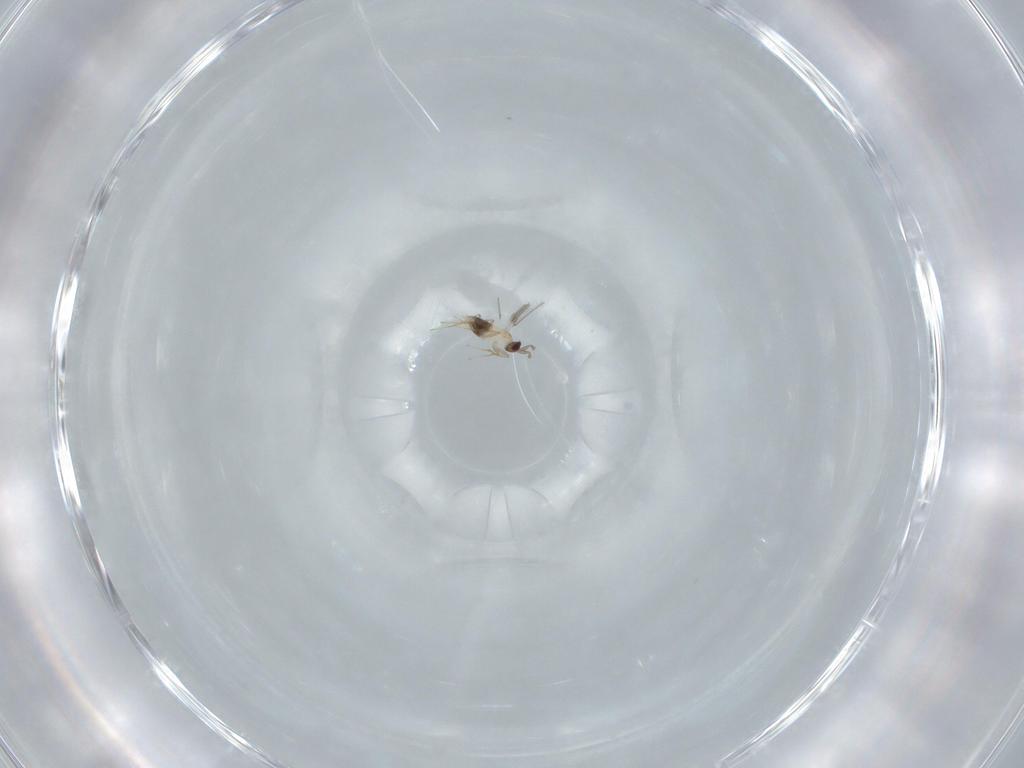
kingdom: Animalia
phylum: Arthropoda
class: Insecta
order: Hymenoptera
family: Mymaridae
